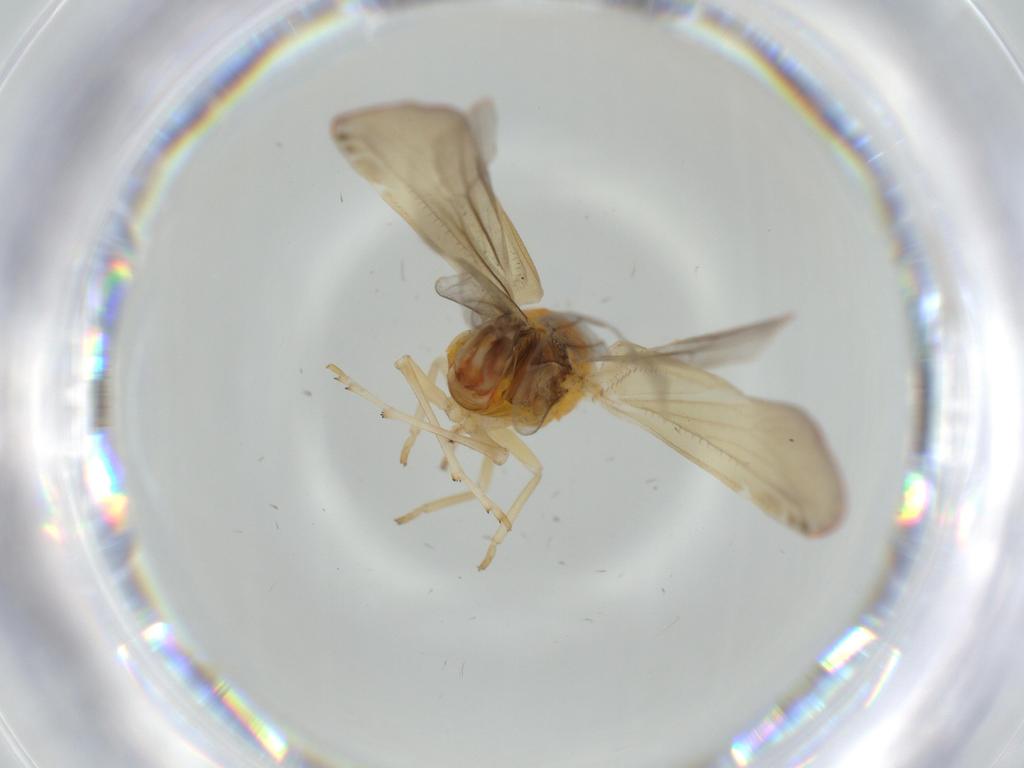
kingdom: Animalia
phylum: Arthropoda
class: Insecta
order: Hemiptera
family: Derbidae
